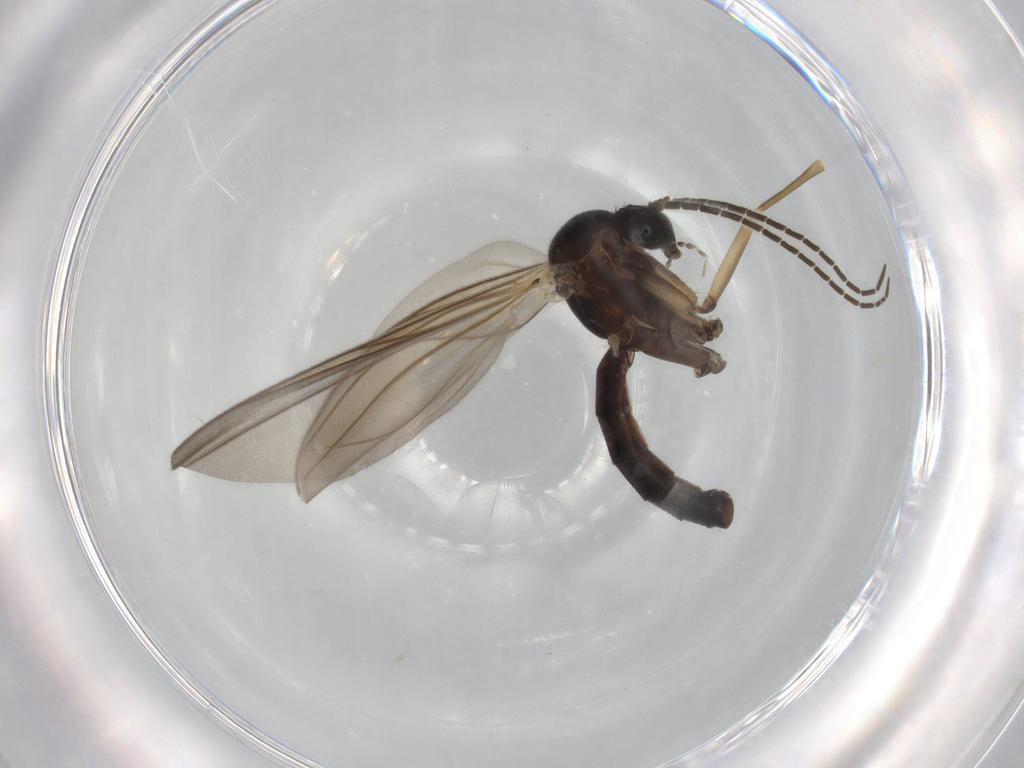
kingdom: Animalia
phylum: Arthropoda
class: Insecta
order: Diptera
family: Mycetophilidae
